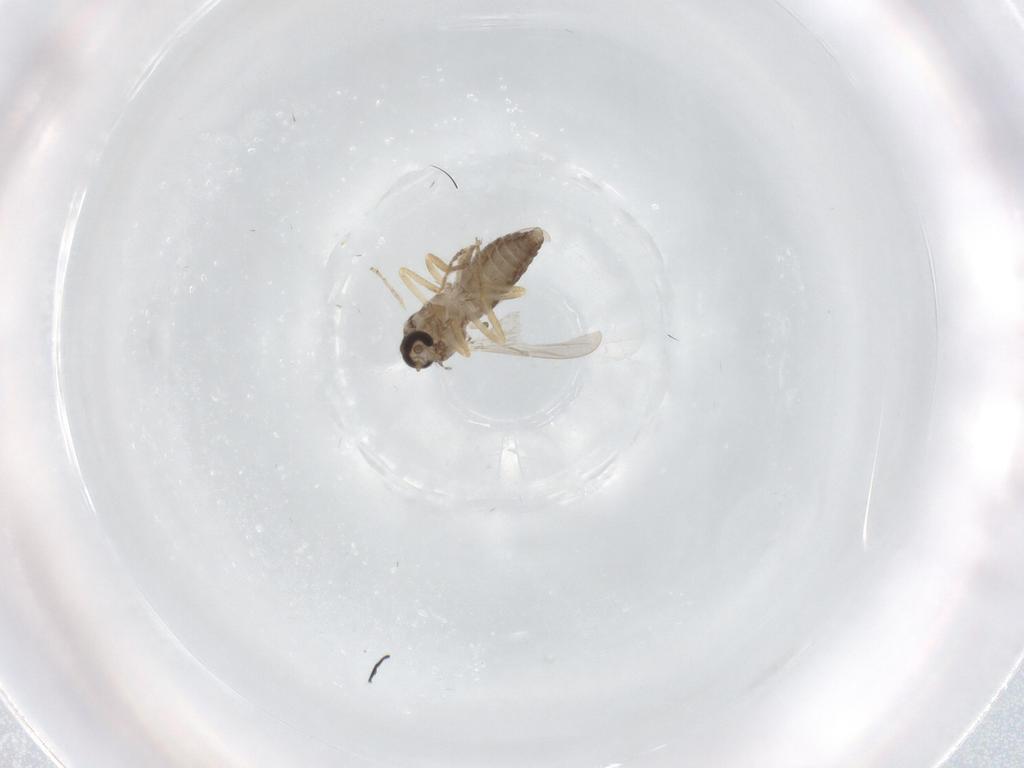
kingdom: Animalia
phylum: Arthropoda
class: Insecta
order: Diptera
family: Ceratopogonidae
